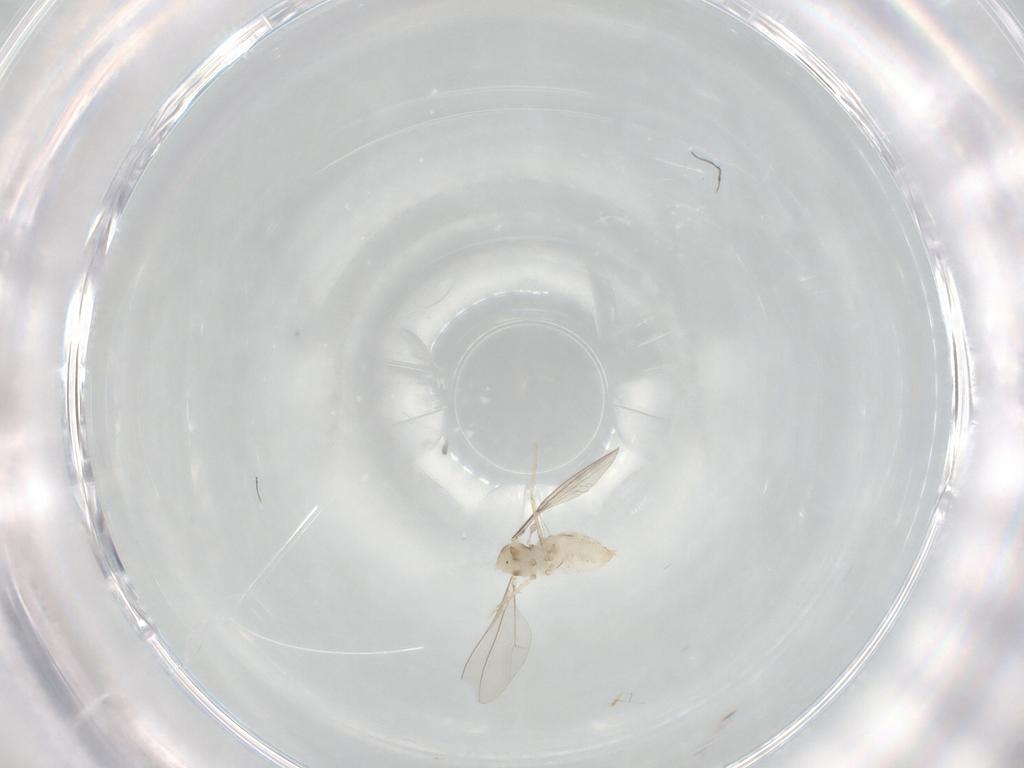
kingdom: Animalia
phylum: Arthropoda
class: Insecta
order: Diptera
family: Cecidomyiidae
